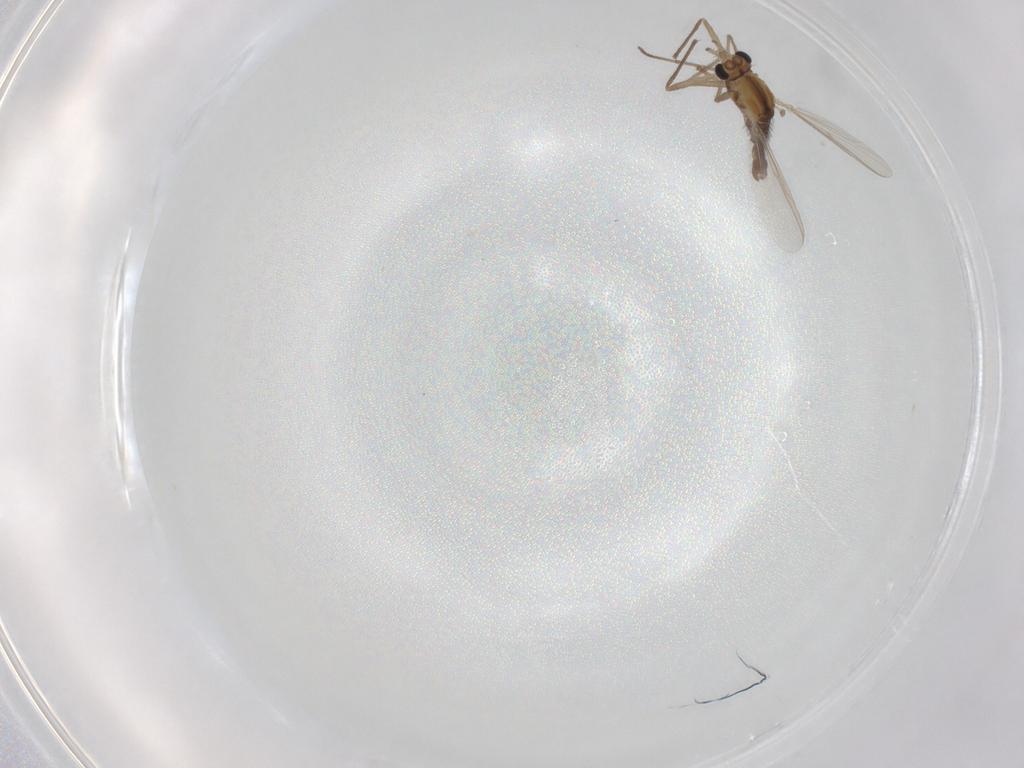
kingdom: Animalia
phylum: Arthropoda
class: Insecta
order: Diptera
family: Chironomidae
